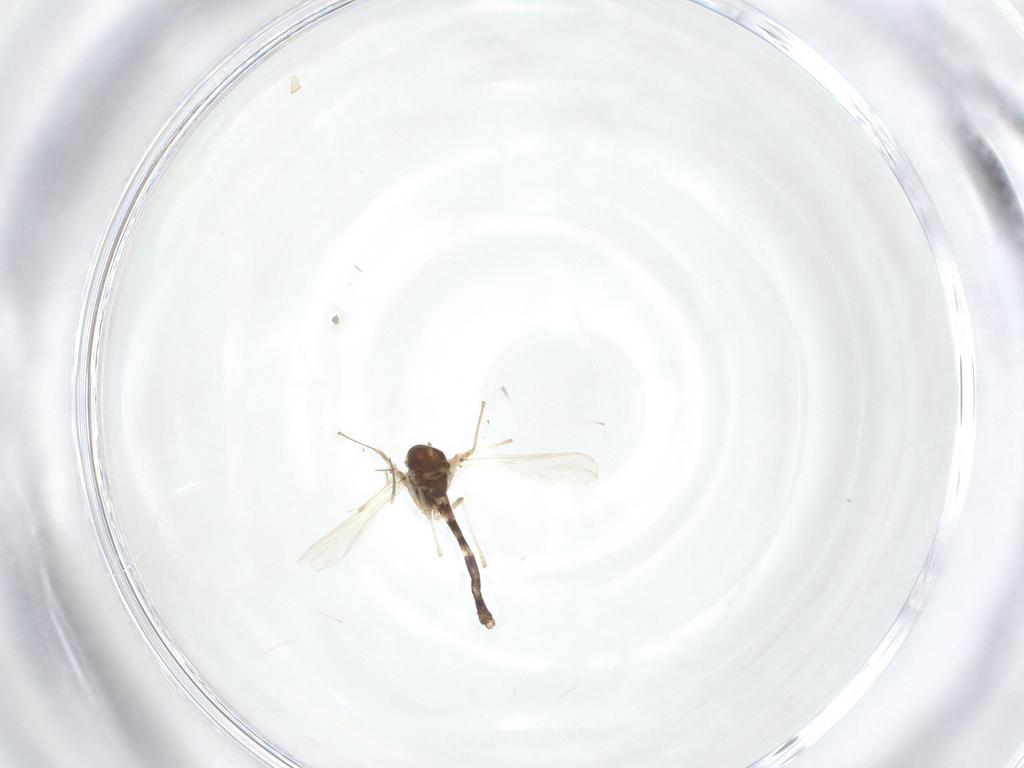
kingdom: Animalia
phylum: Arthropoda
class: Insecta
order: Diptera
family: Chironomidae
